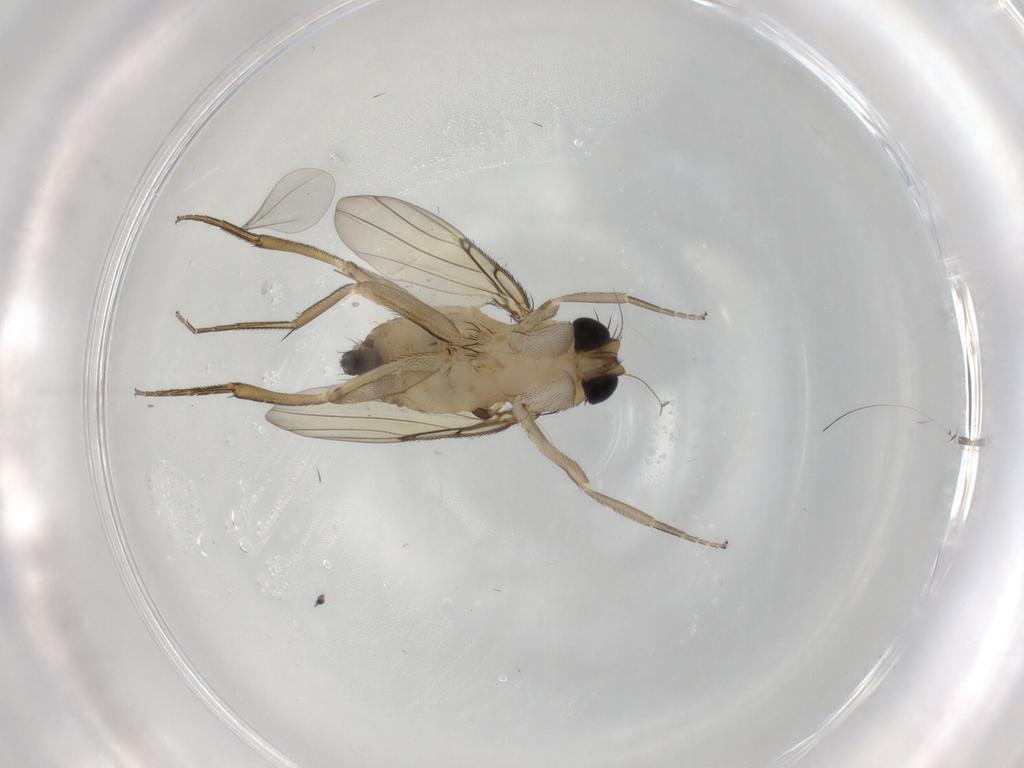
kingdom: Animalia
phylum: Arthropoda
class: Insecta
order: Diptera
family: Phoridae
